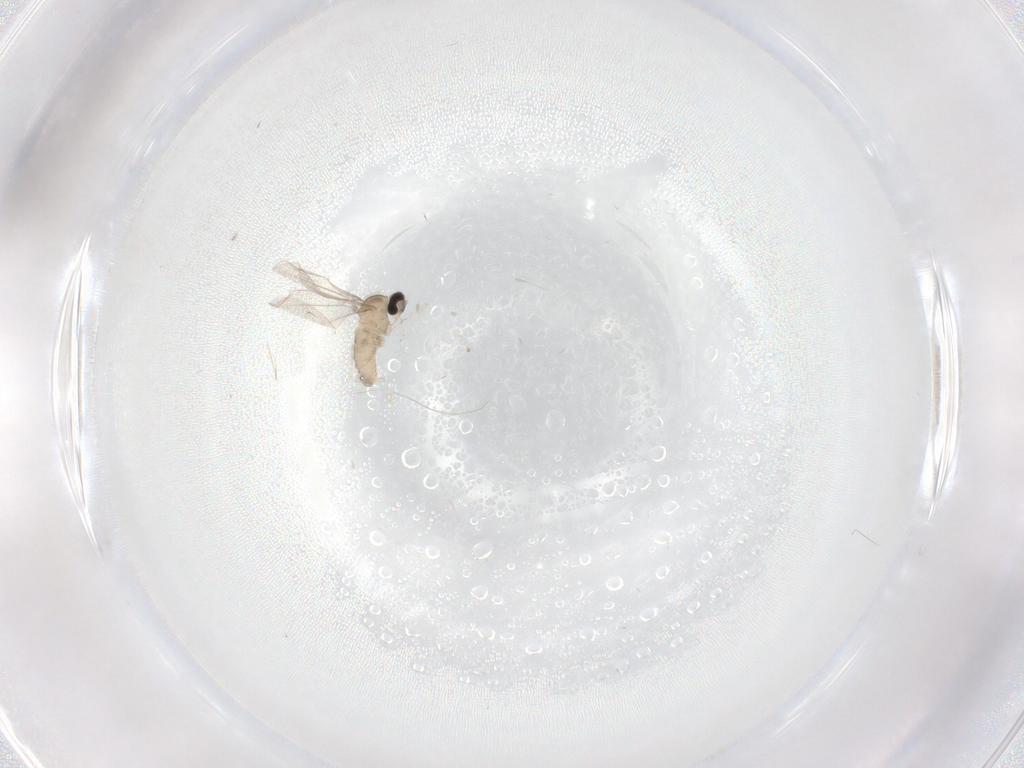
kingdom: Animalia
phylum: Arthropoda
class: Insecta
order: Diptera
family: Cecidomyiidae
